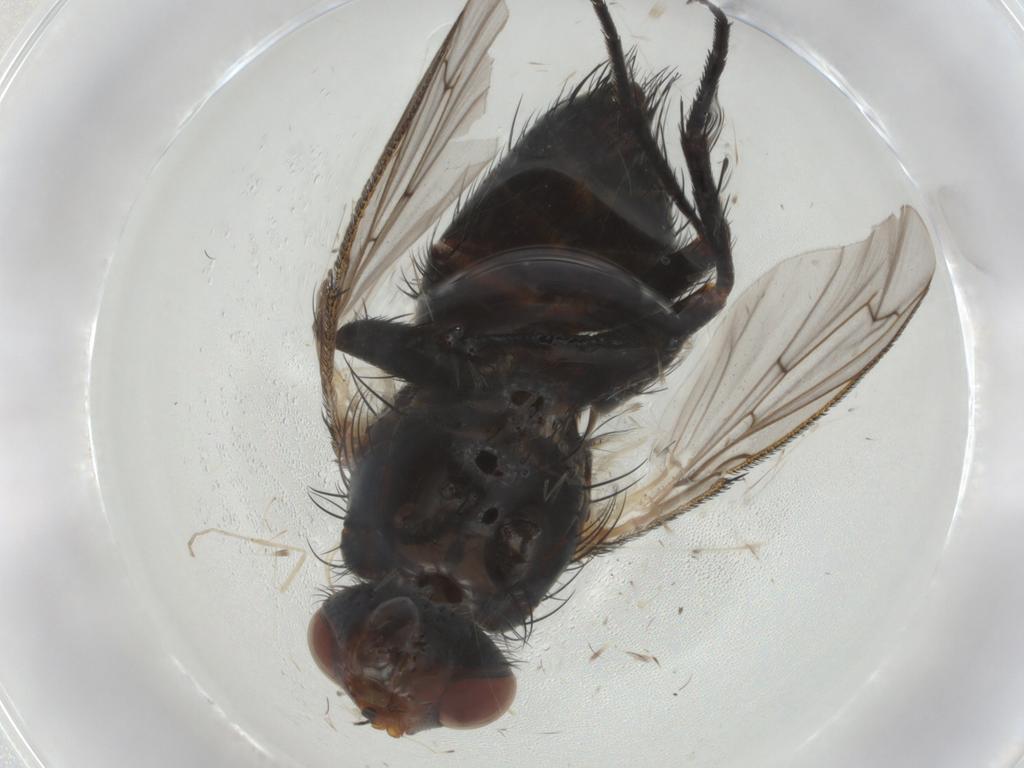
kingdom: Animalia
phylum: Arthropoda
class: Insecta
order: Diptera
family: Tachinidae
